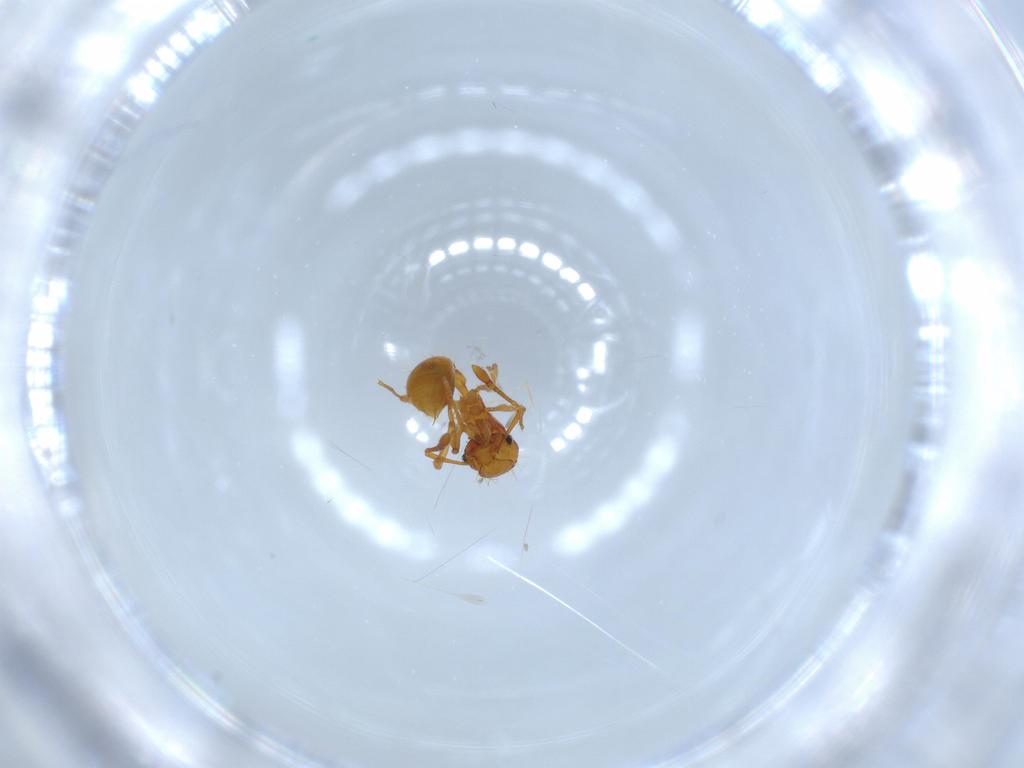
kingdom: Animalia
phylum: Arthropoda
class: Insecta
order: Hymenoptera
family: Formicidae
